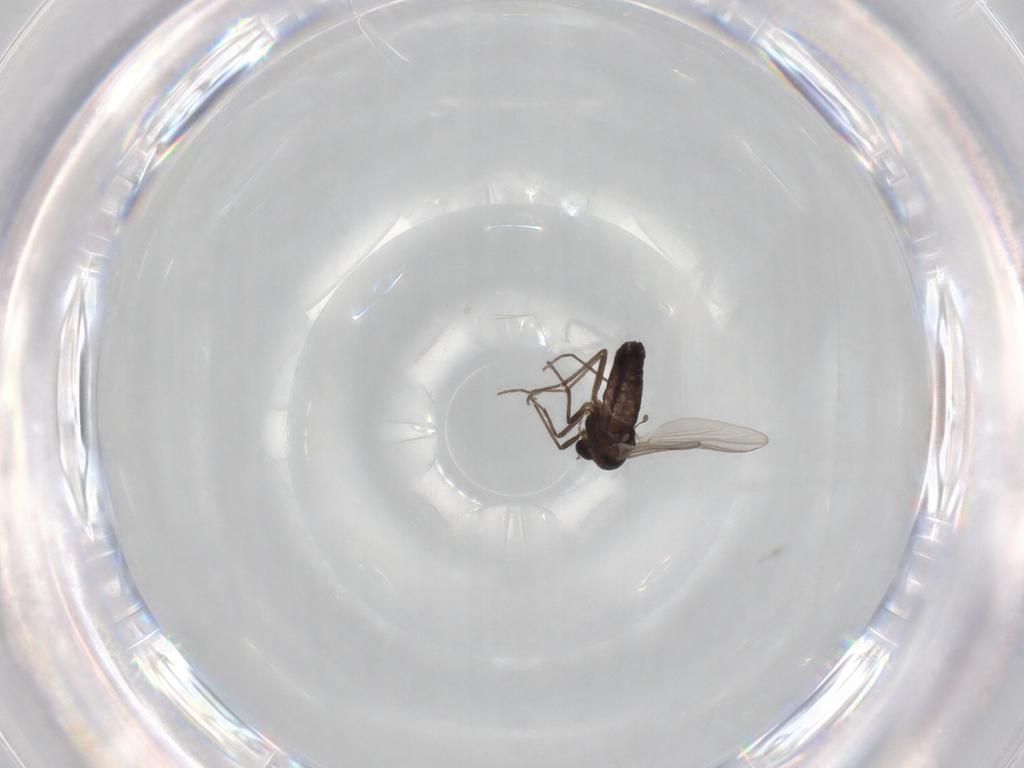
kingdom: Animalia
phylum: Arthropoda
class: Insecta
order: Diptera
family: Chironomidae
